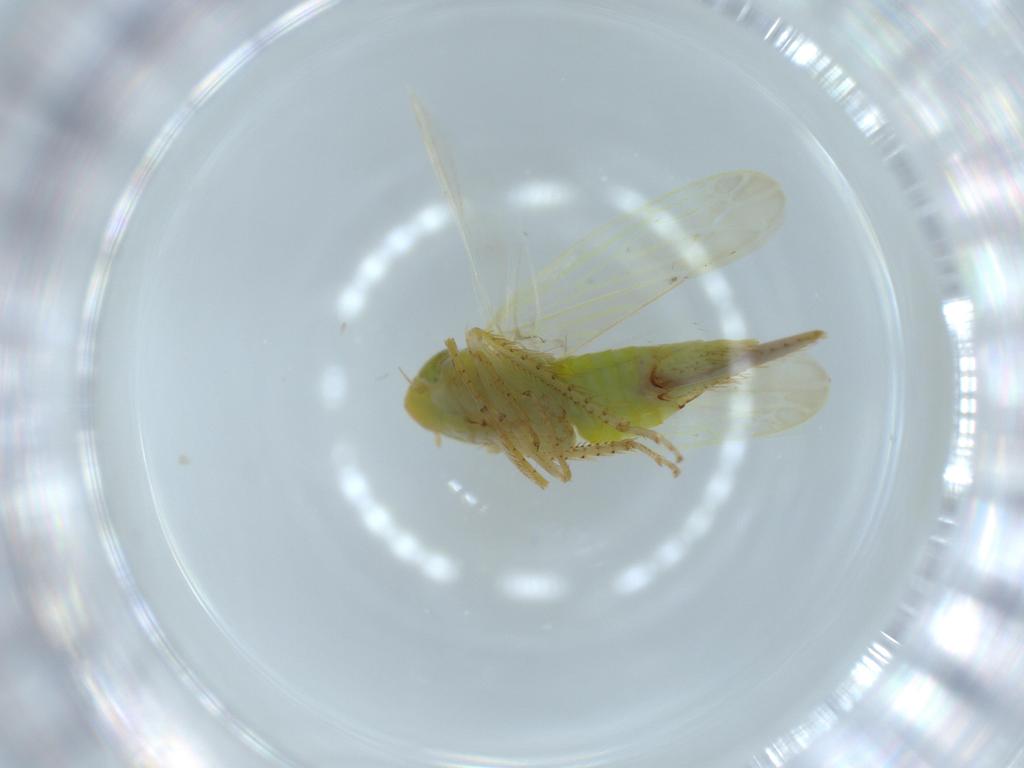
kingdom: Animalia
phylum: Arthropoda
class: Insecta
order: Hemiptera
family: Cicadellidae
